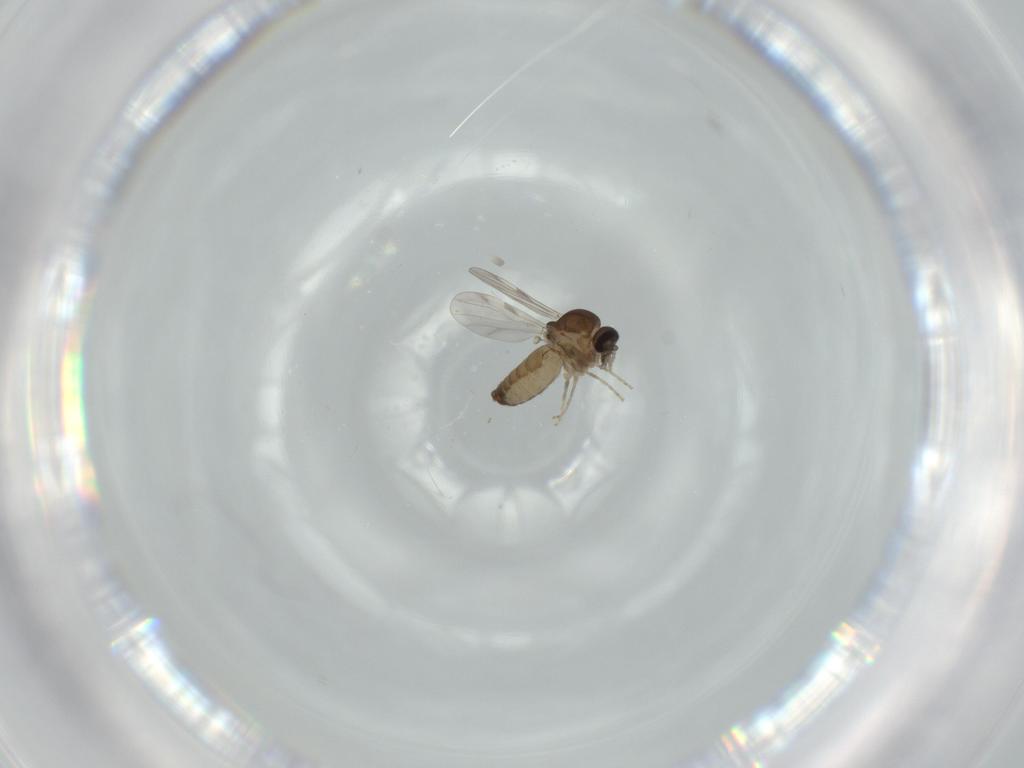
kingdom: Animalia
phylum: Arthropoda
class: Insecta
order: Diptera
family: Ceratopogonidae
